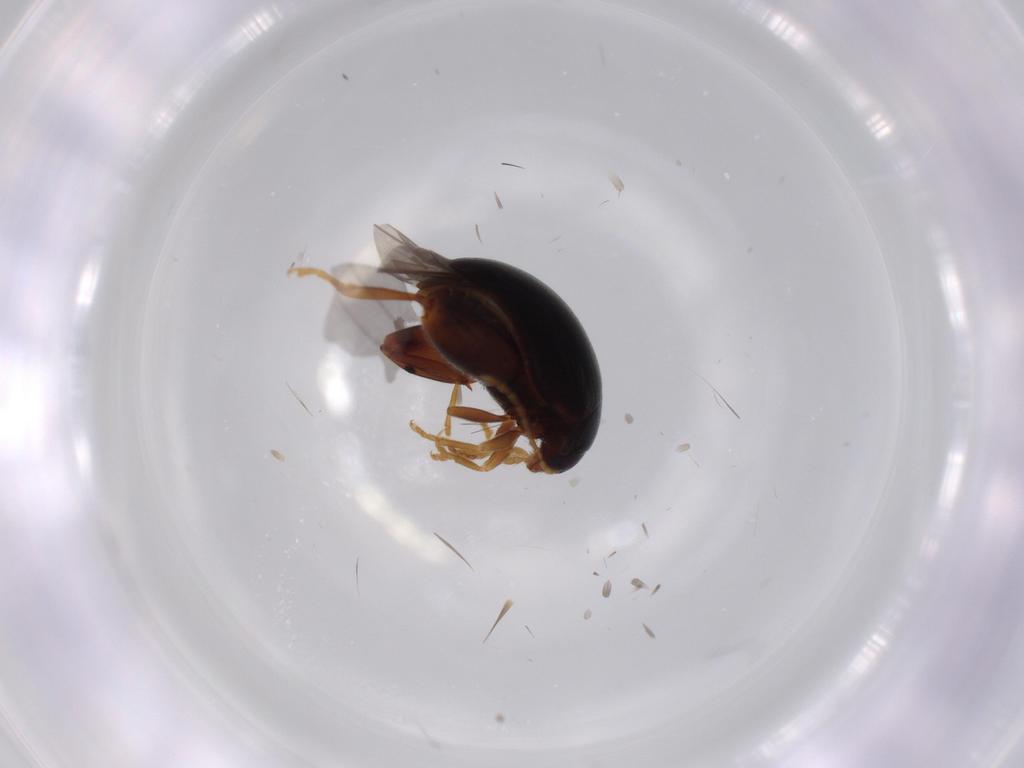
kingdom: Animalia
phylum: Arthropoda
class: Insecta
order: Coleoptera
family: Chrysomelidae
